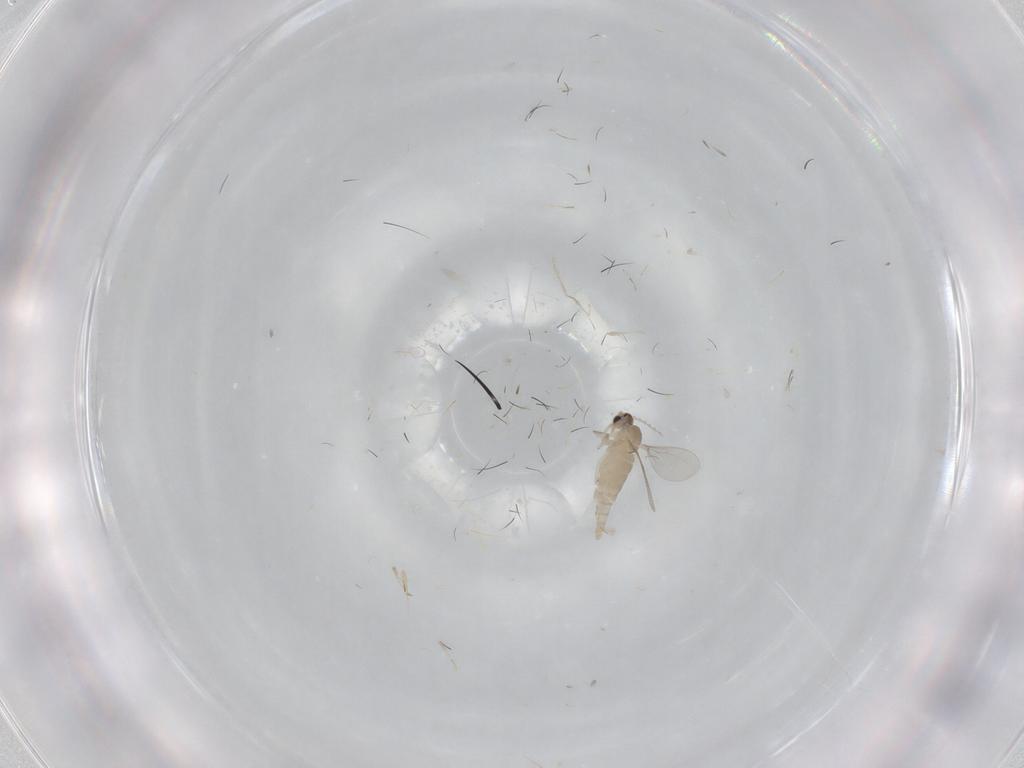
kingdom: Animalia
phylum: Arthropoda
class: Insecta
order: Diptera
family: Cecidomyiidae
